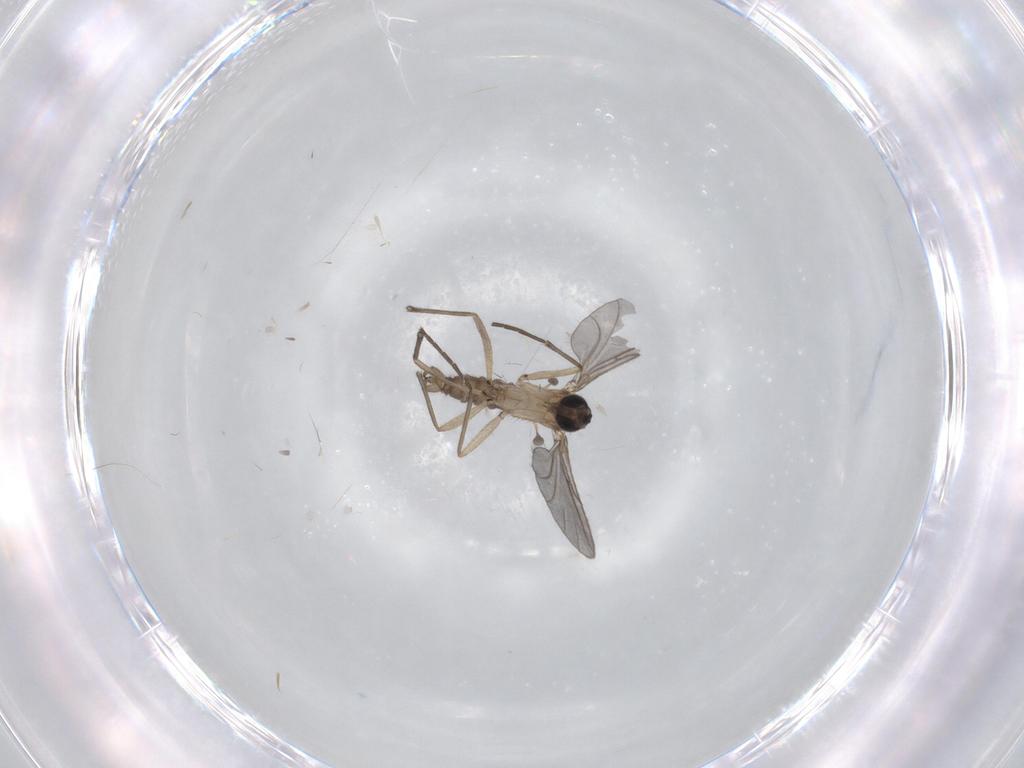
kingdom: Animalia
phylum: Arthropoda
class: Insecta
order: Diptera
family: Sciaridae
